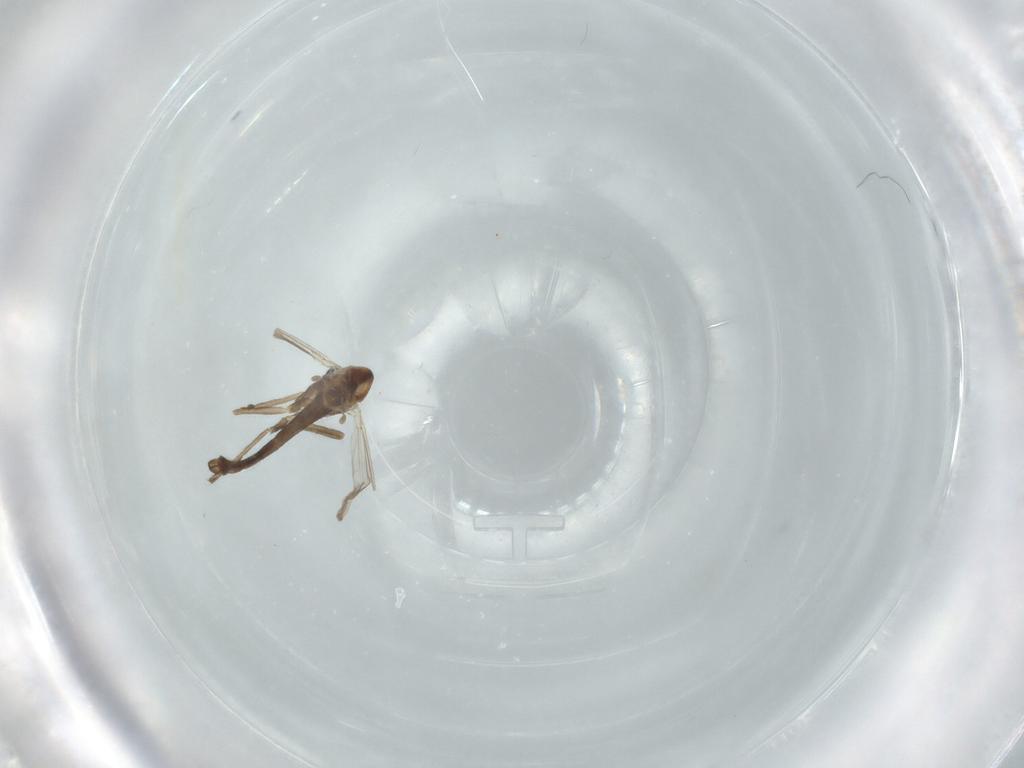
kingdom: Animalia
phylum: Arthropoda
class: Insecta
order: Diptera
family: Chironomidae
